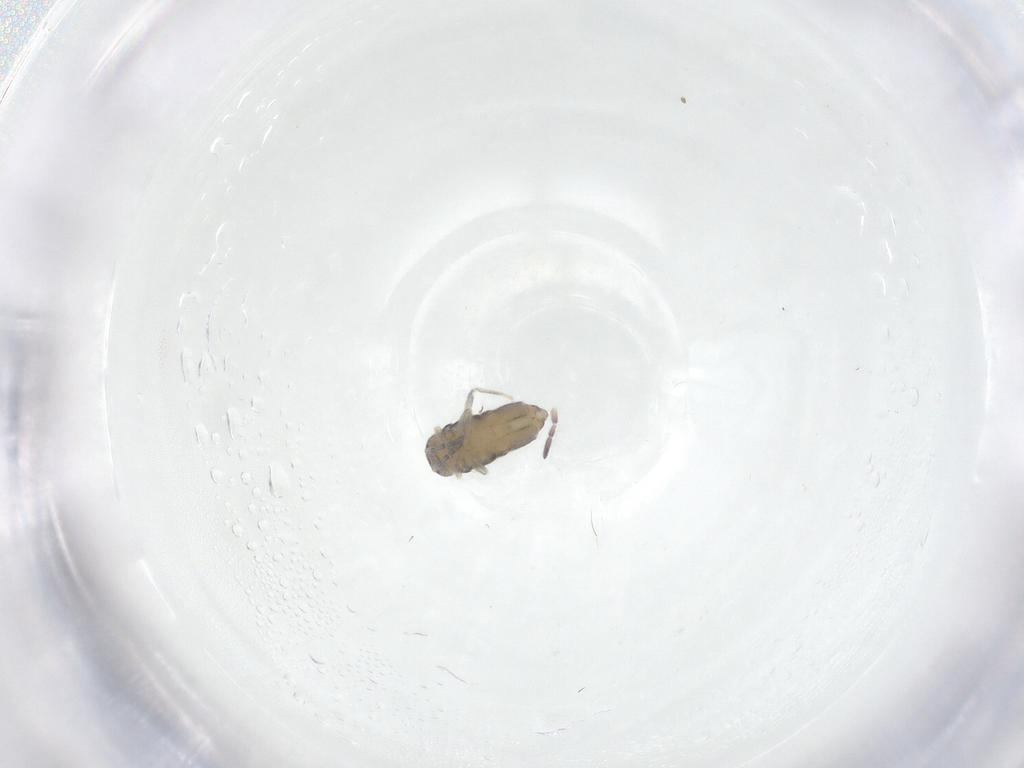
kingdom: Animalia
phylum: Arthropoda
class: Collembola
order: Entomobryomorpha
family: Entomobryidae
